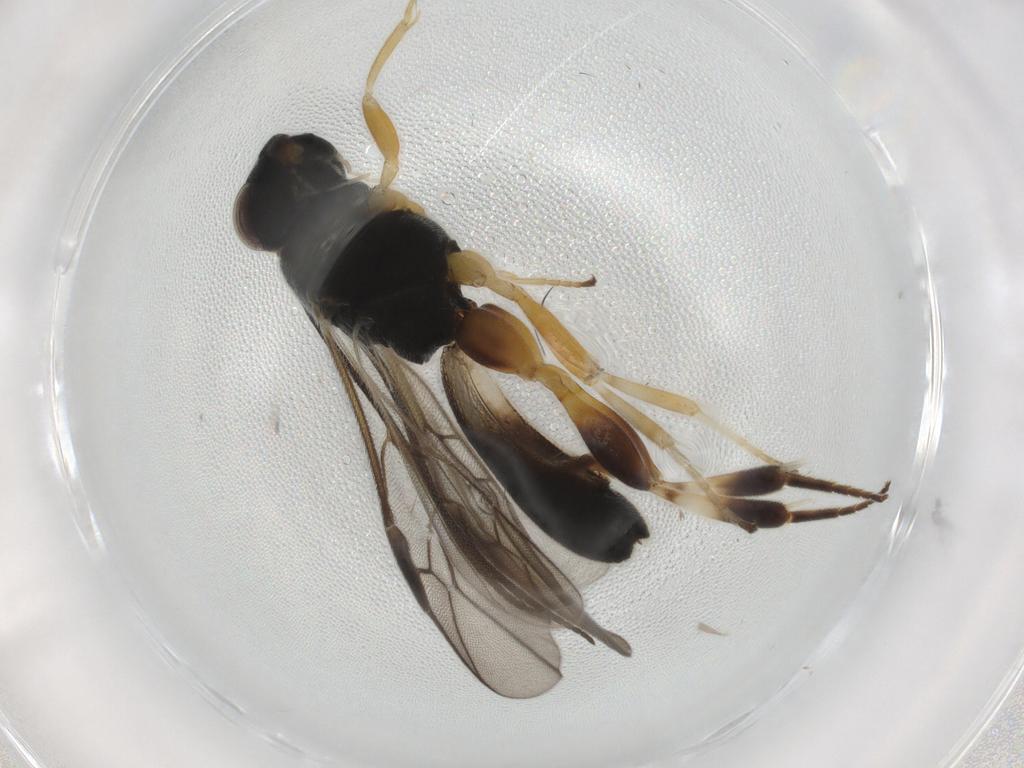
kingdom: Animalia
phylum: Arthropoda
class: Insecta
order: Hymenoptera
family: Braconidae
